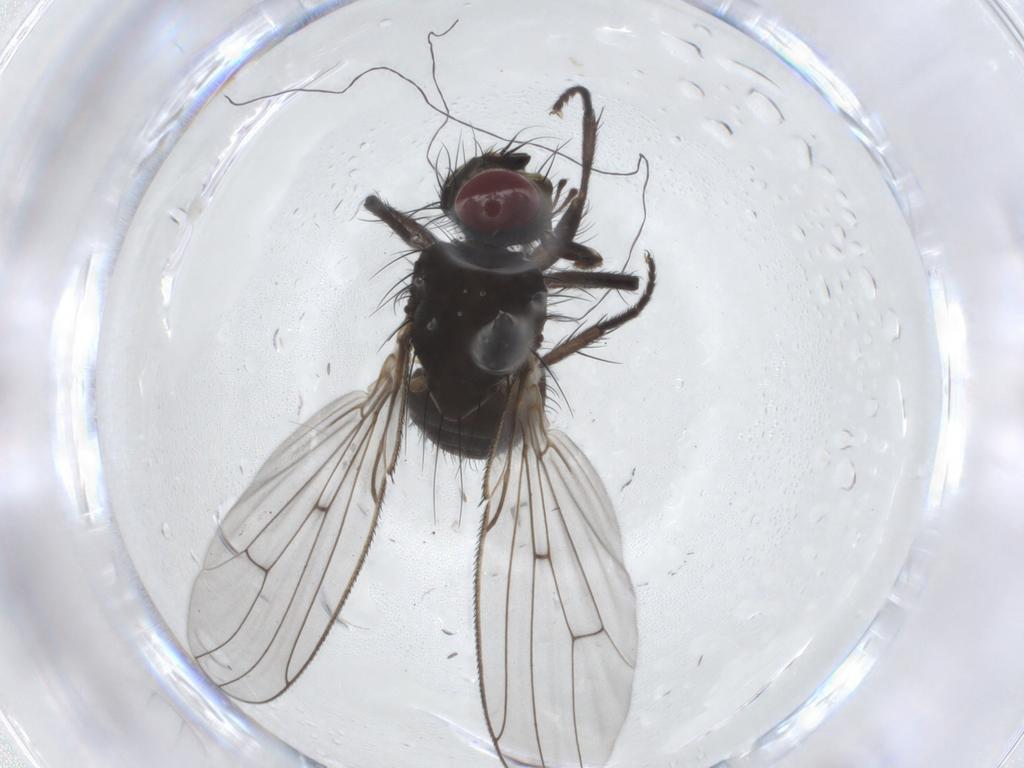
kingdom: Animalia
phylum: Arthropoda
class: Insecta
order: Diptera
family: Muscidae
